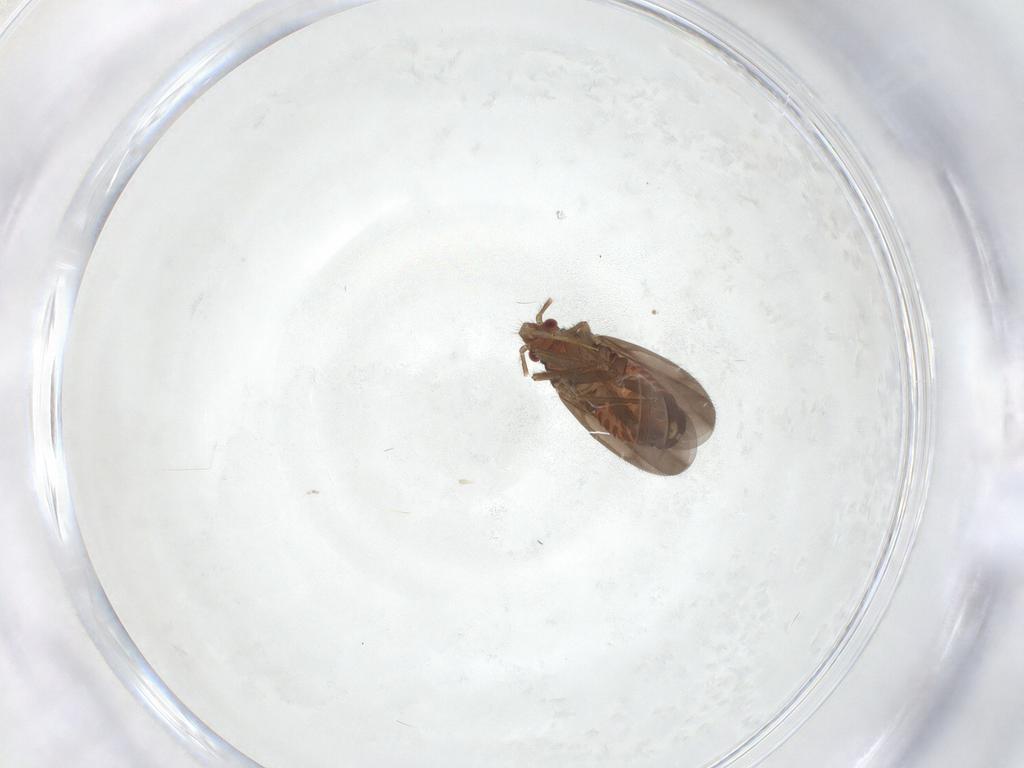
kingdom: Animalia
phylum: Arthropoda
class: Insecta
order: Hemiptera
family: Ceratocombidae
